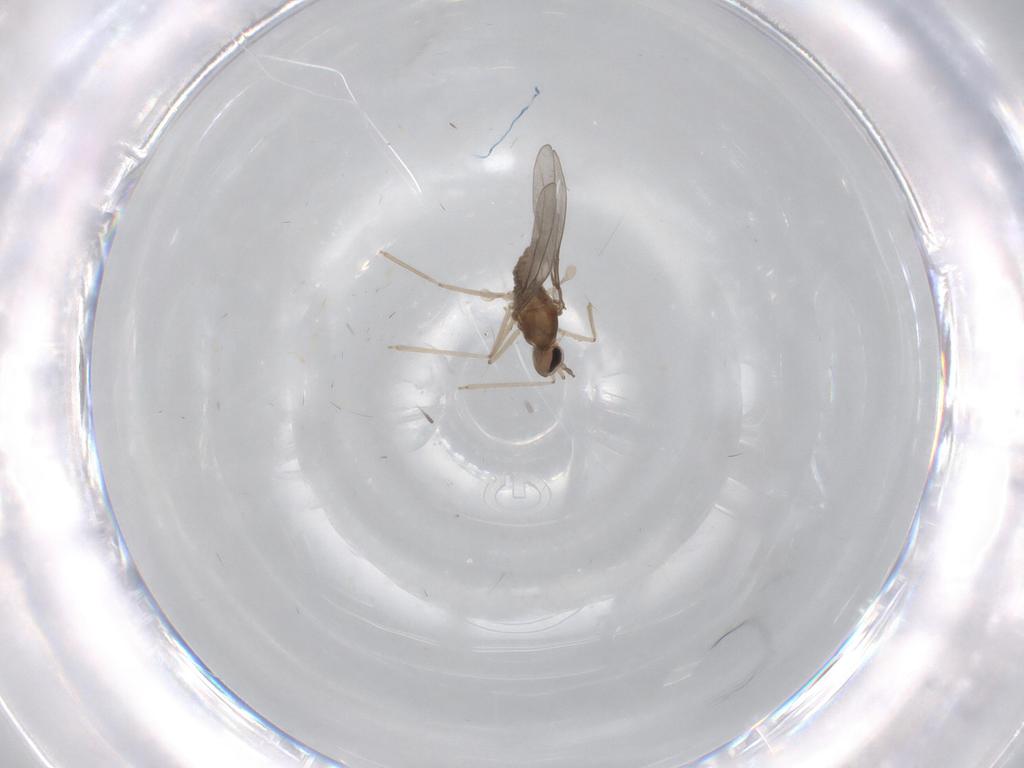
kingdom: Animalia
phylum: Arthropoda
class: Insecta
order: Diptera
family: Cecidomyiidae
